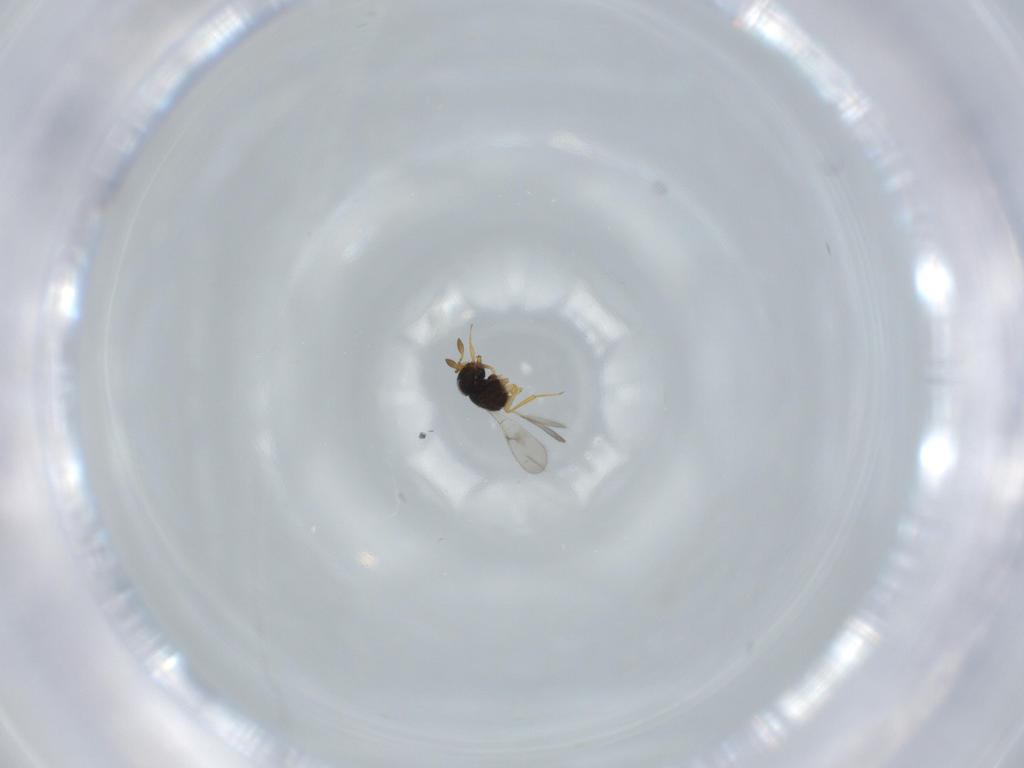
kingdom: Animalia
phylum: Arthropoda
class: Insecta
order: Hymenoptera
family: Scelionidae
